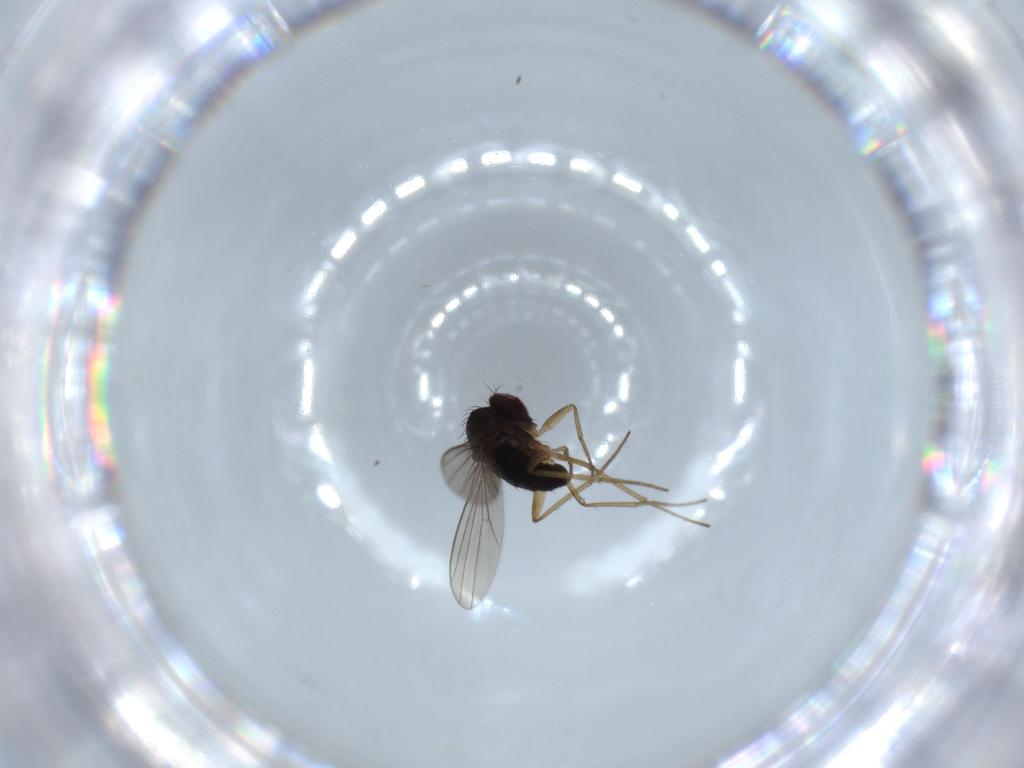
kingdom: Animalia
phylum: Arthropoda
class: Insecta
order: Diptera
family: Dolichopodidae
